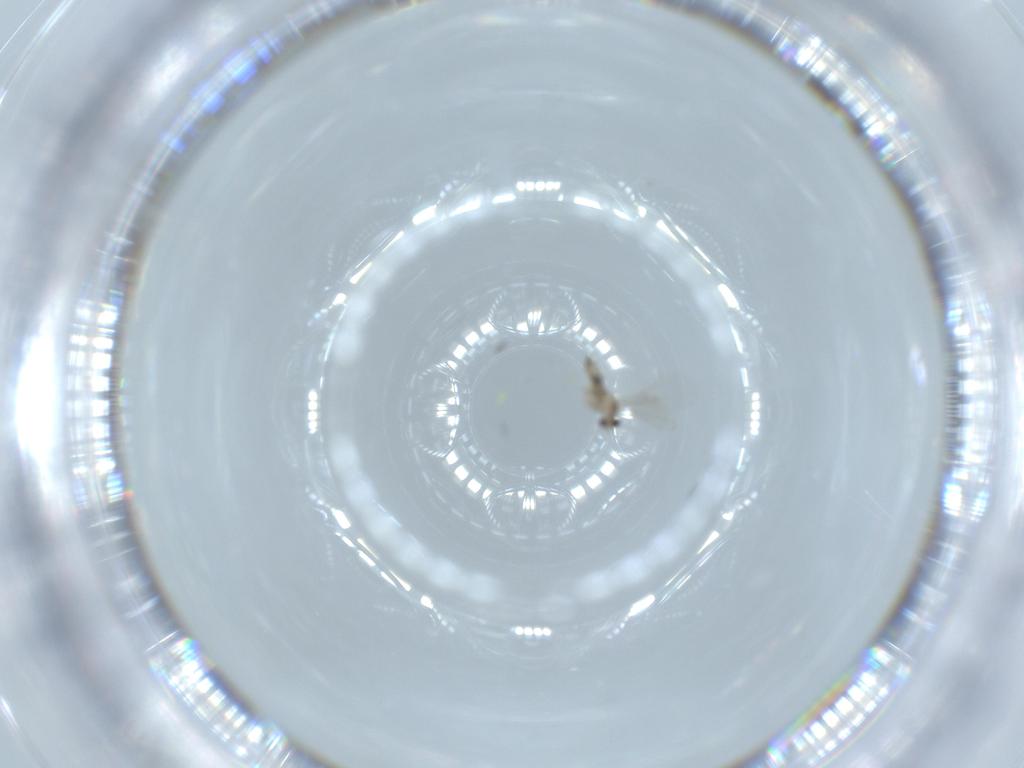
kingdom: Animalia
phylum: Arthropoda
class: Insecta
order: Diptera
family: Cecidomyiidae
